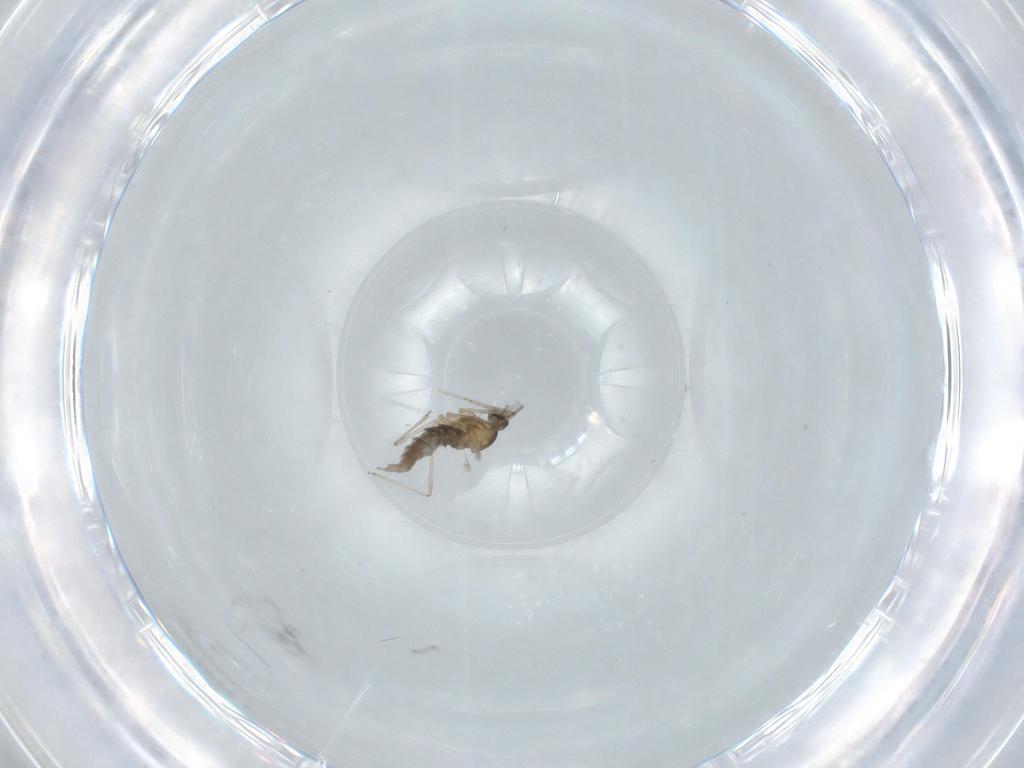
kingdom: Animalia
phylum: Arthropoda
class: Insecta
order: Diptera
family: Cecidomyiidae
